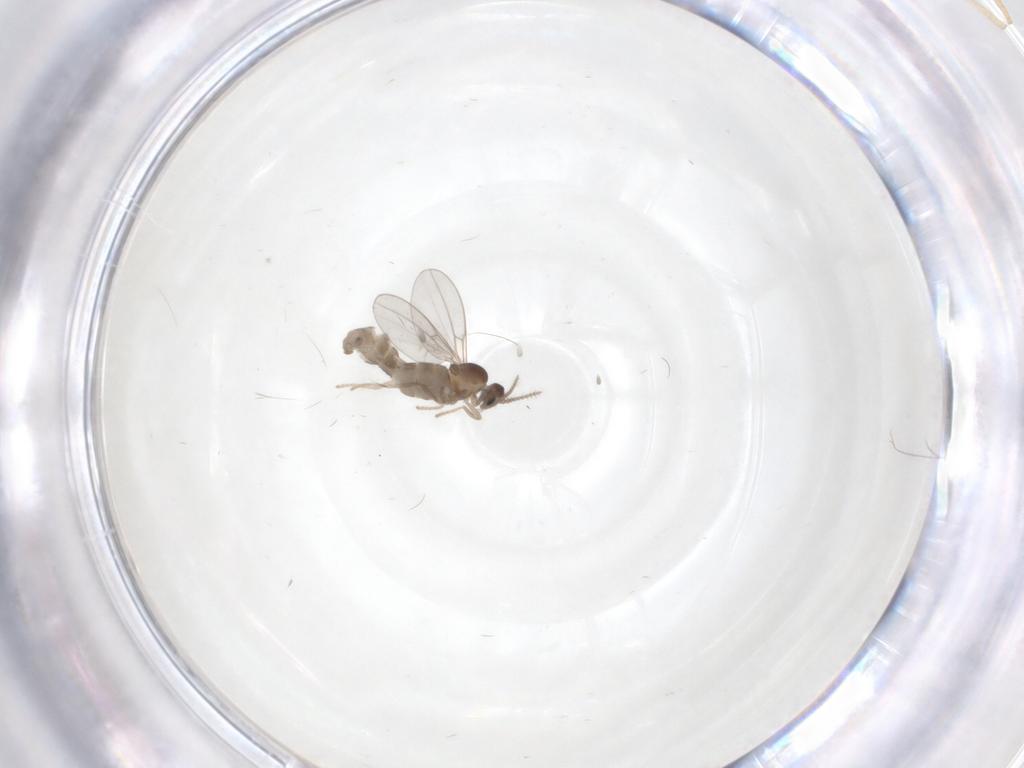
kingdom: Animalia
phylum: Arthropoda
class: Insecta
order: Diptera
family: Cecidomyiidae
